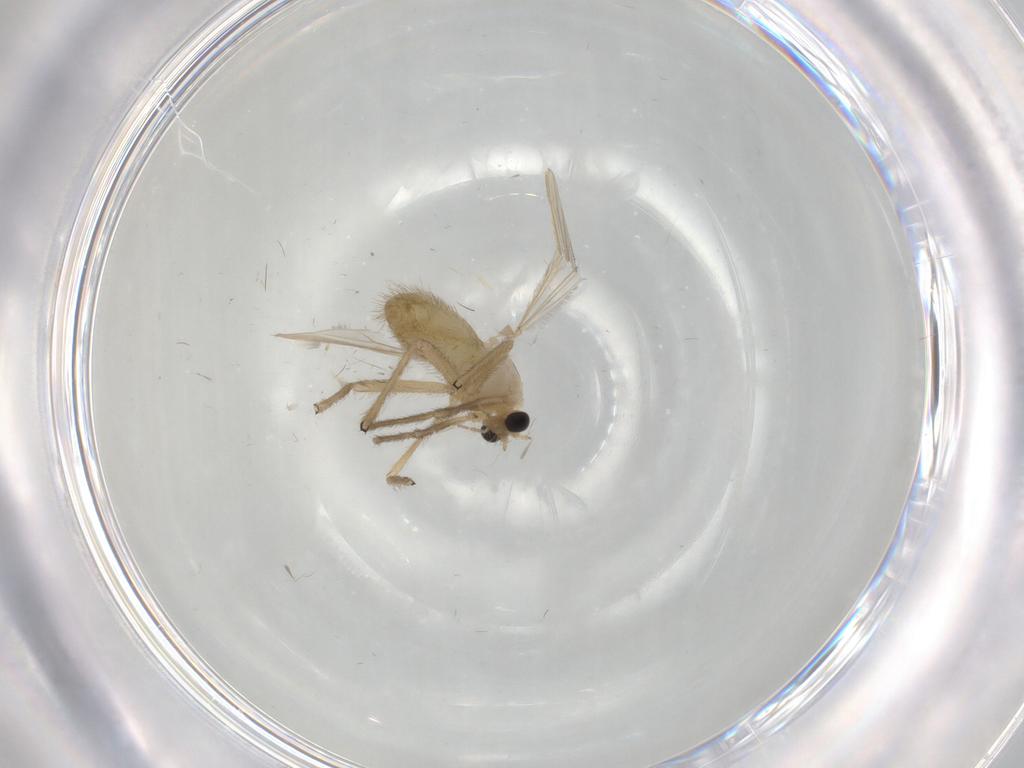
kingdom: Animalia
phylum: Arthropoda
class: Insecta
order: Diptera
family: Chironomidae
